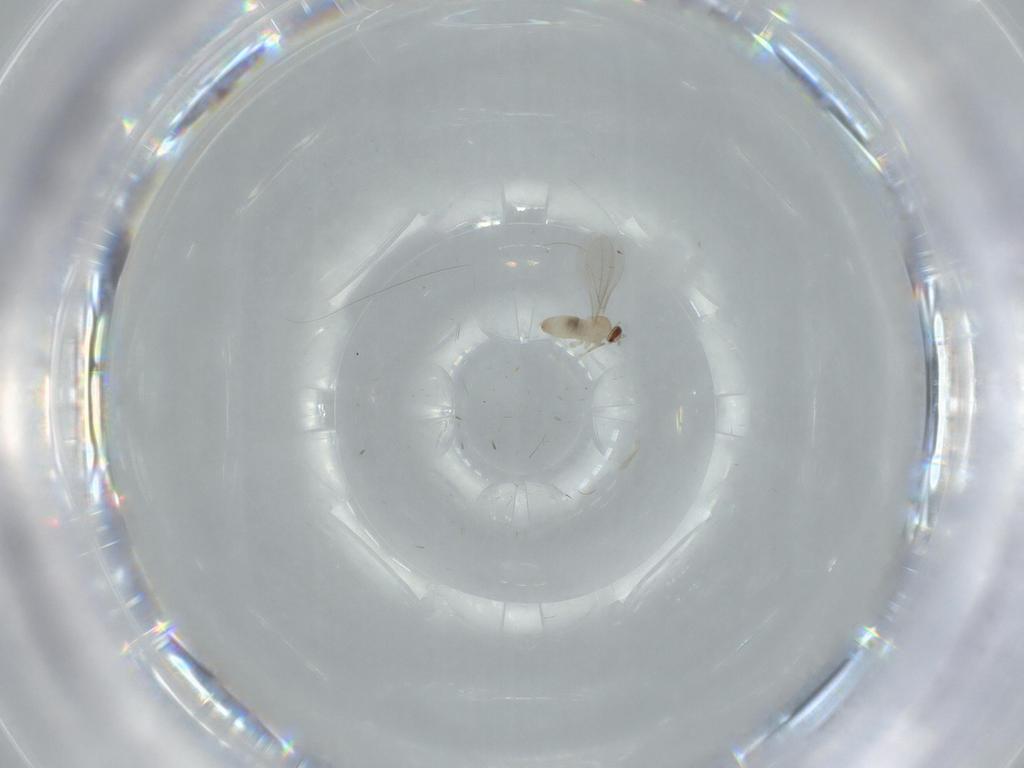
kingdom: Animalia
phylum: Arthropoda
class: Insecta
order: Diptera
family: Cecidomyiidae
